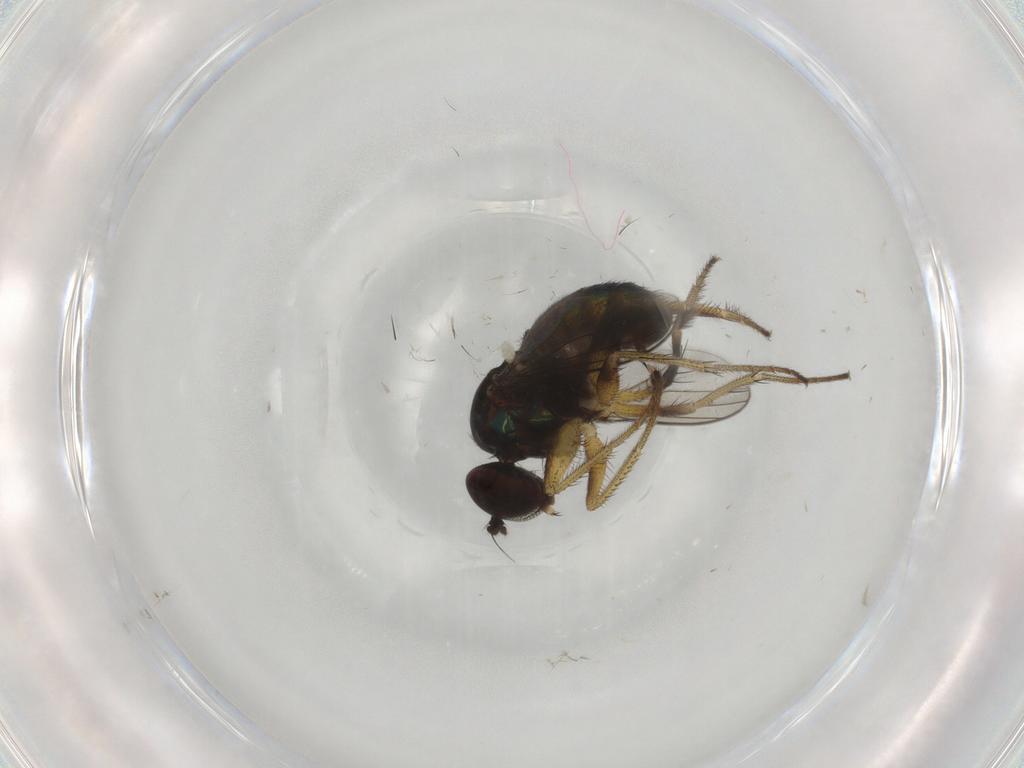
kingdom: Animalia
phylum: Arthropoda
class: Insecta
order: Diptera
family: Dolichopodidae
